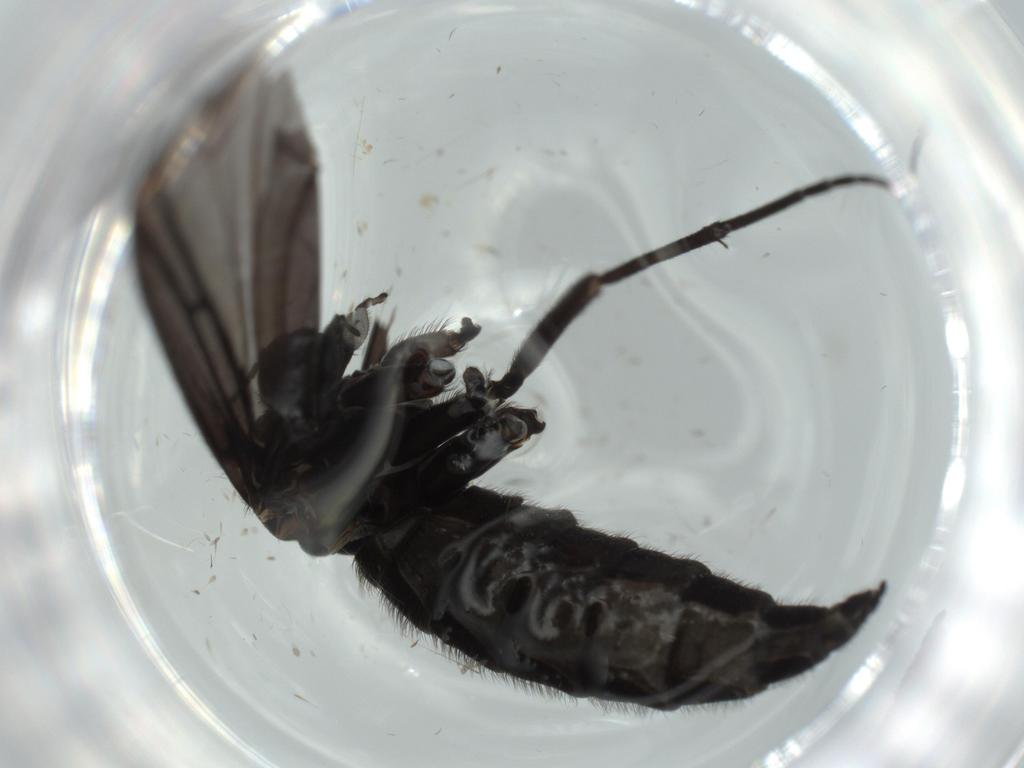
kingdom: Animalia
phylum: Arthropoda
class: Insecta
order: Diptera
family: Sciaridae
